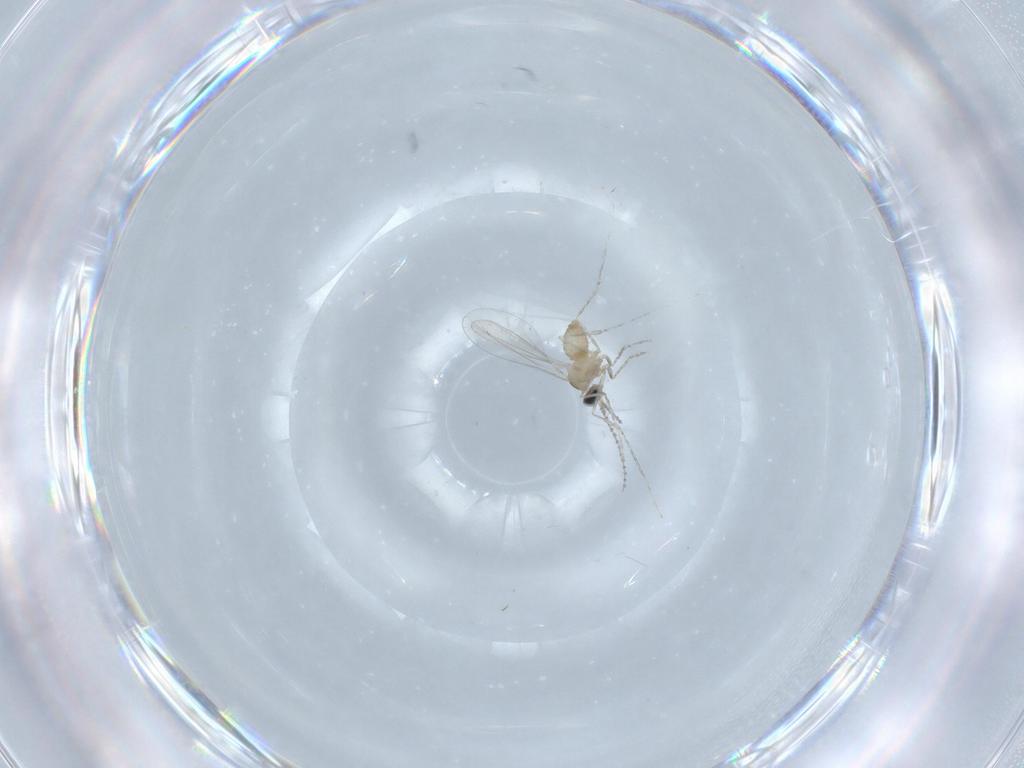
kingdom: Animalia
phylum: Arthropoda
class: Insecta
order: Diptera
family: Cecidomyiidae
